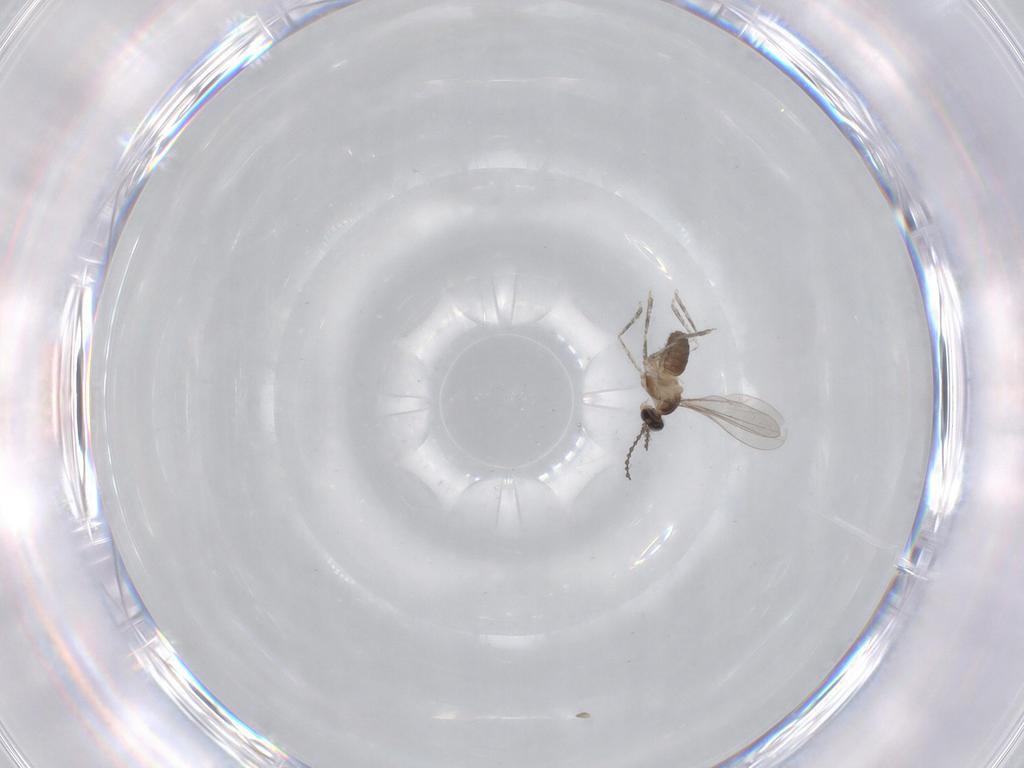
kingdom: Animalia
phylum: Arthropoda
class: Insecta
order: Diptera
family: Cecidomyiidae
